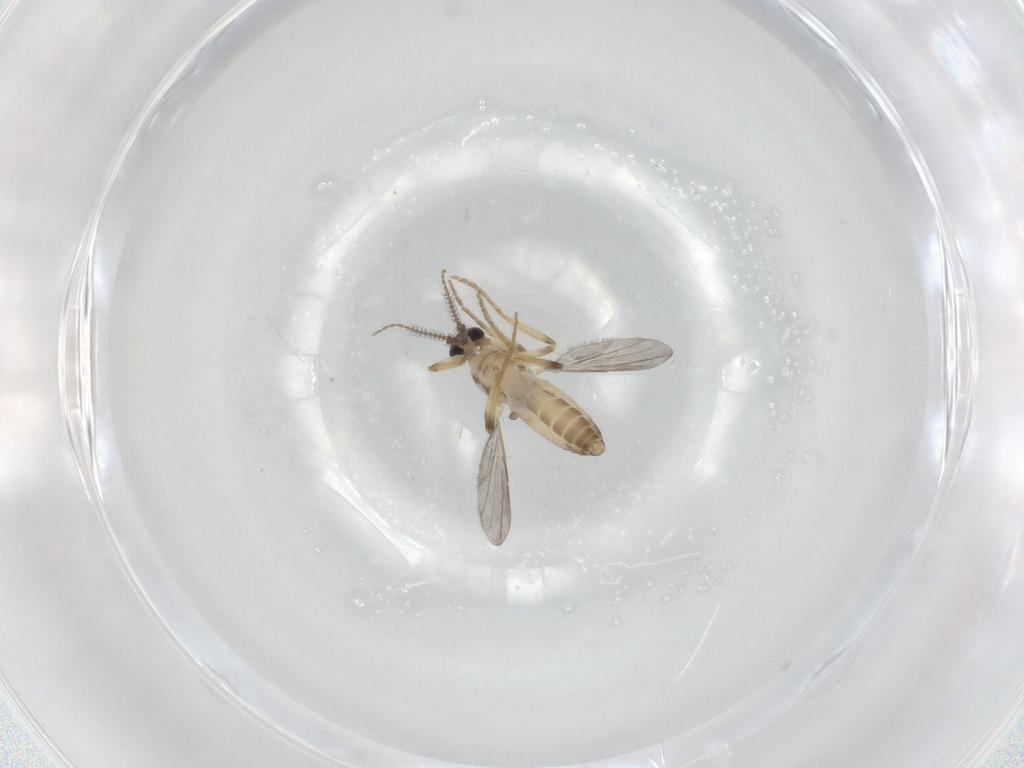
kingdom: Animalia
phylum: Arthropoda
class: Insecta
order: Diptera
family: Ceratopogonidae
